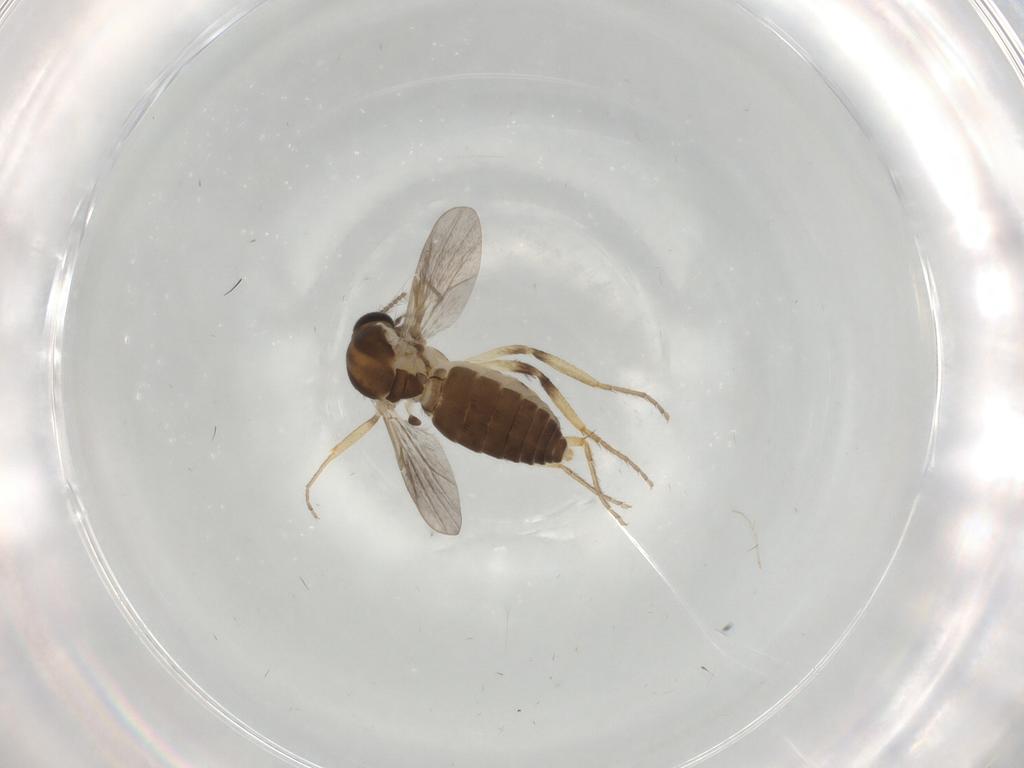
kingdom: Animalia
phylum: Arthropoda
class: Insecta
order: Diptera
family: Ceratopogonidae
